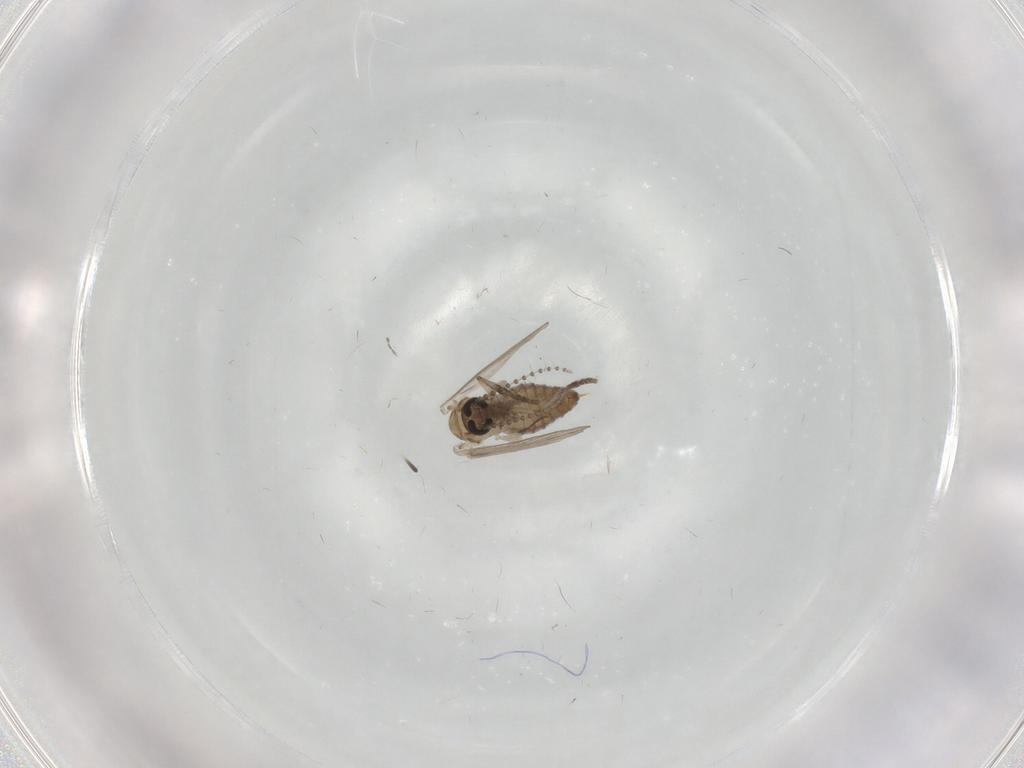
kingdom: Animalia
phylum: Arthropoda
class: Insecta
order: Diptera
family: Psychodidae
